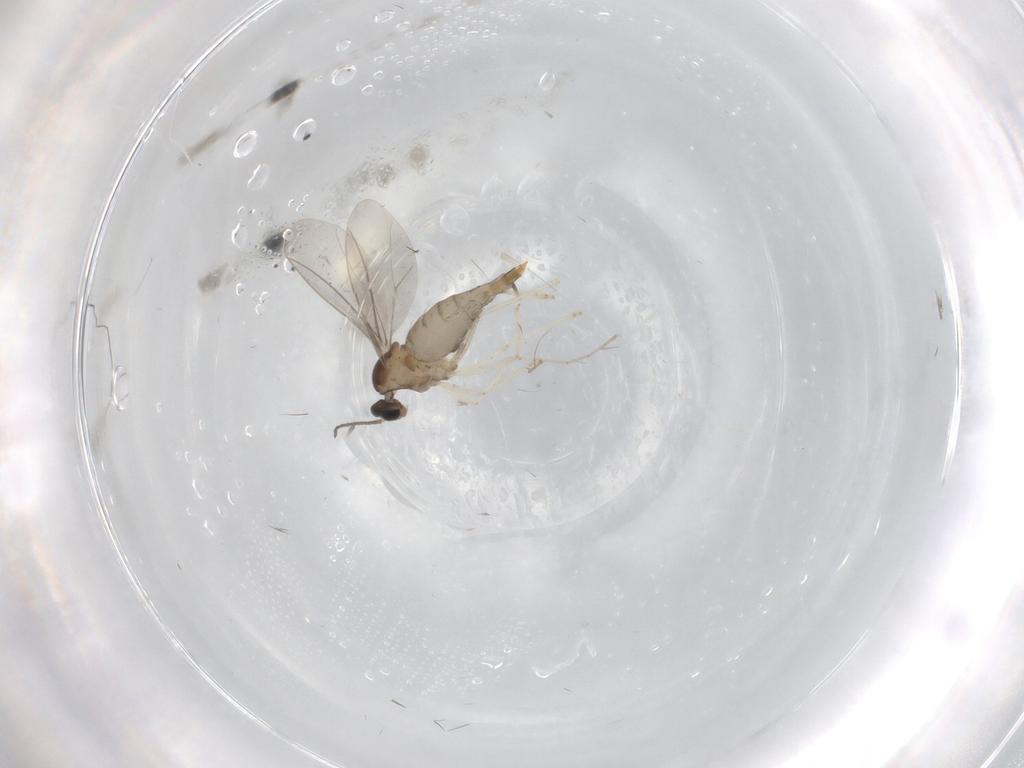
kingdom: Animalia
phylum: Arthropoda
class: Insecta
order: Diptera
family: Cecidomyiidae
